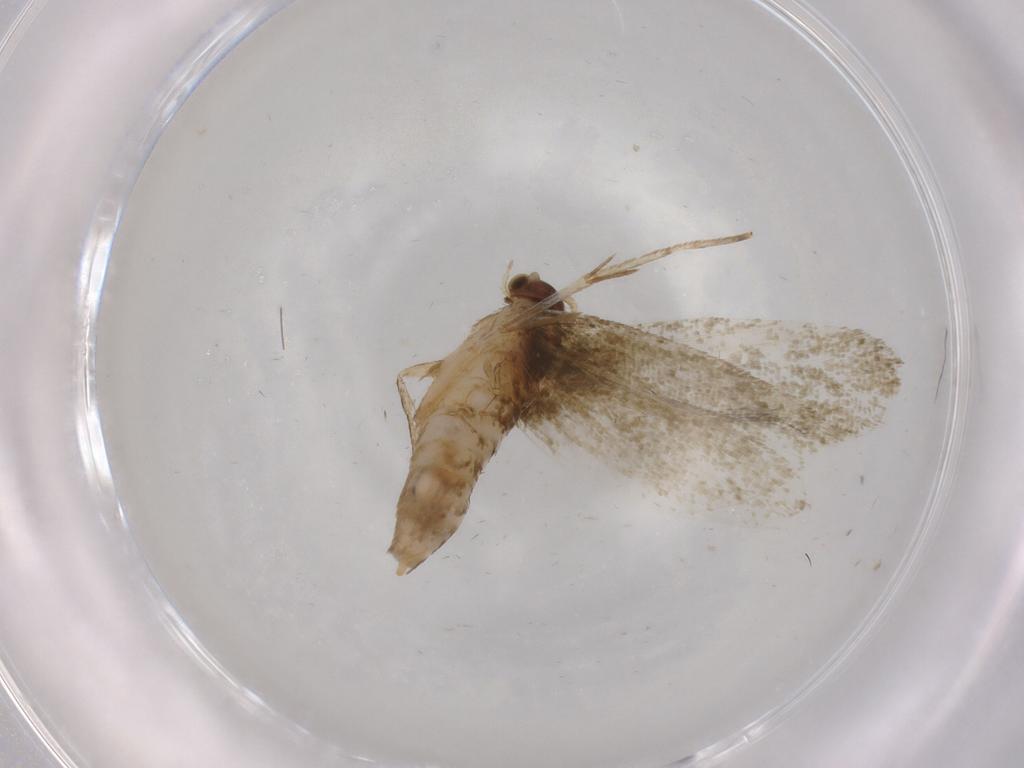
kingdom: Animalia
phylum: Arthropoda
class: Insecta
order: Lepidoptera
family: Tineidae
